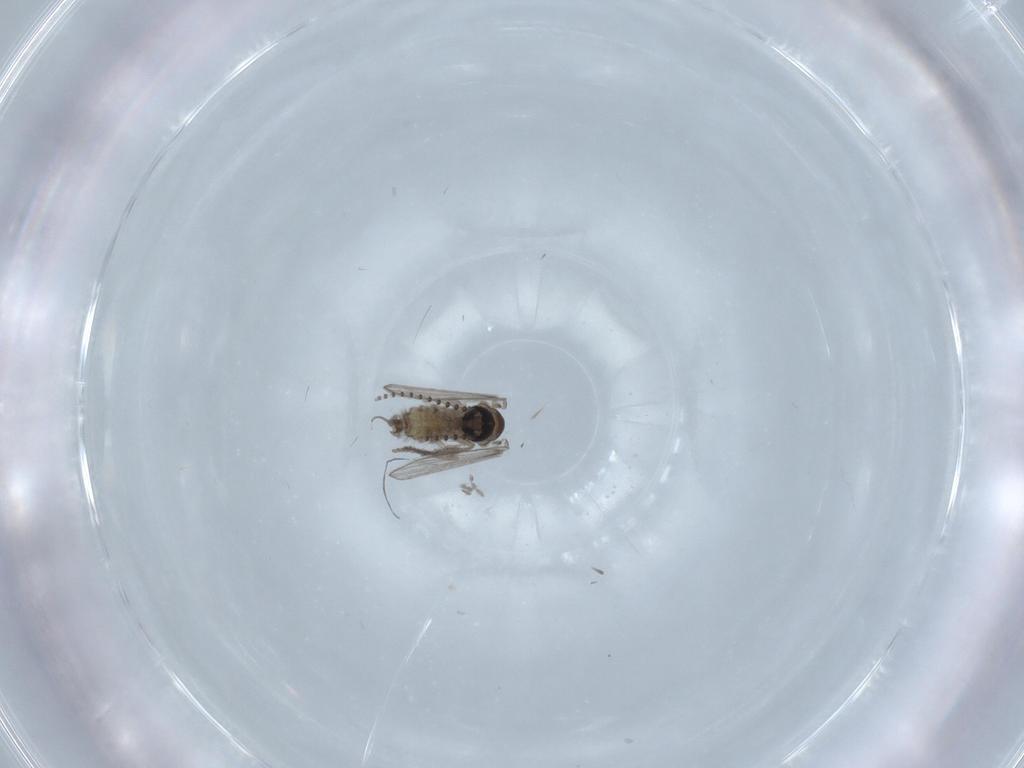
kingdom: Animalia
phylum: Arthropoda
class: Insecta
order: Diptera
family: Psychodidae
